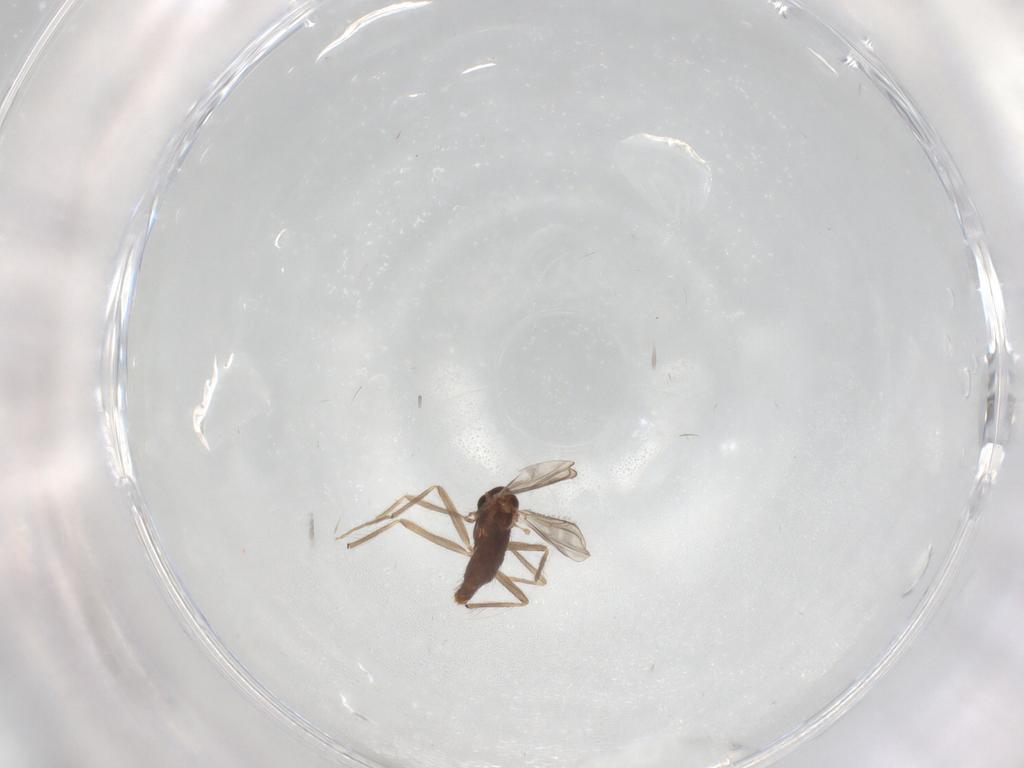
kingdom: Animalia
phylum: Arthropoda
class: Insecta
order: Diptera
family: Chironomidae
